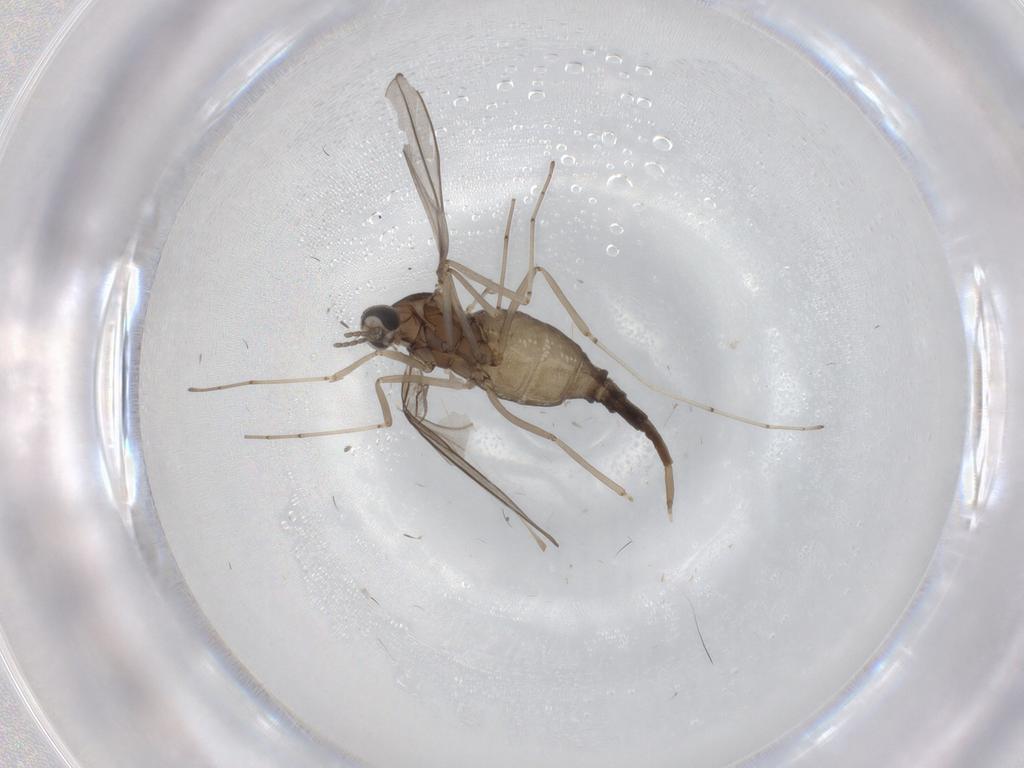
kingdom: Animalia
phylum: Arthropoda
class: Insecta
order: Diptera
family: Cecidomyiidae
